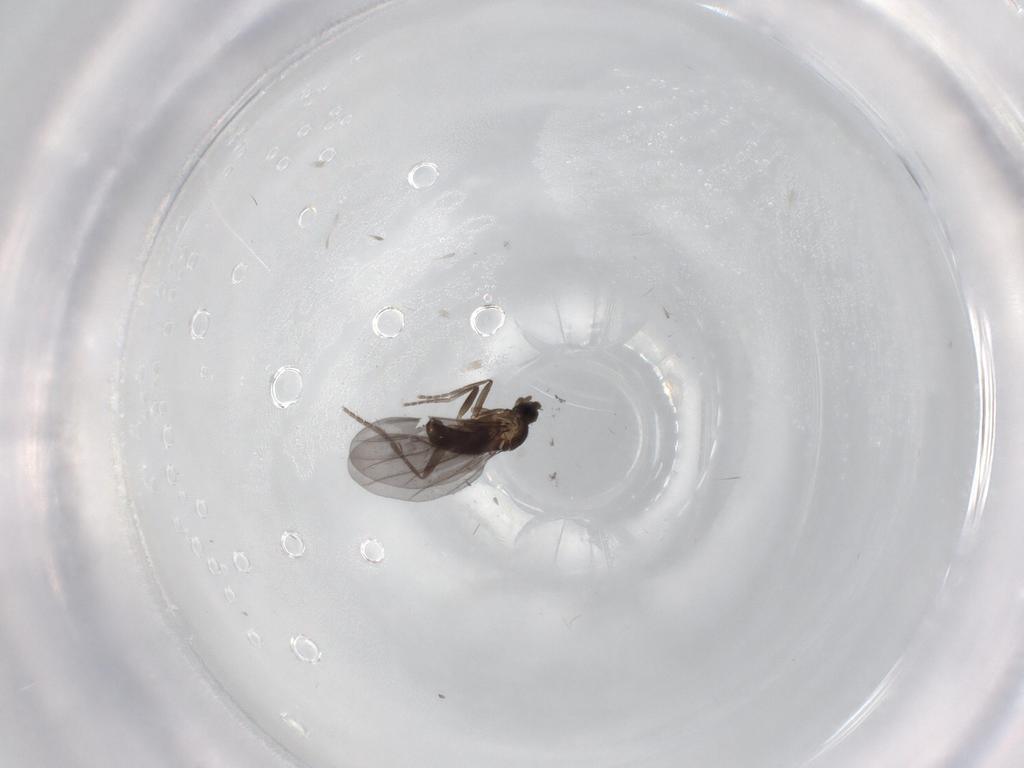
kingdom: Animalia
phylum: Arthropoda
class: Insecta
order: Diptera
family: Phoridae
